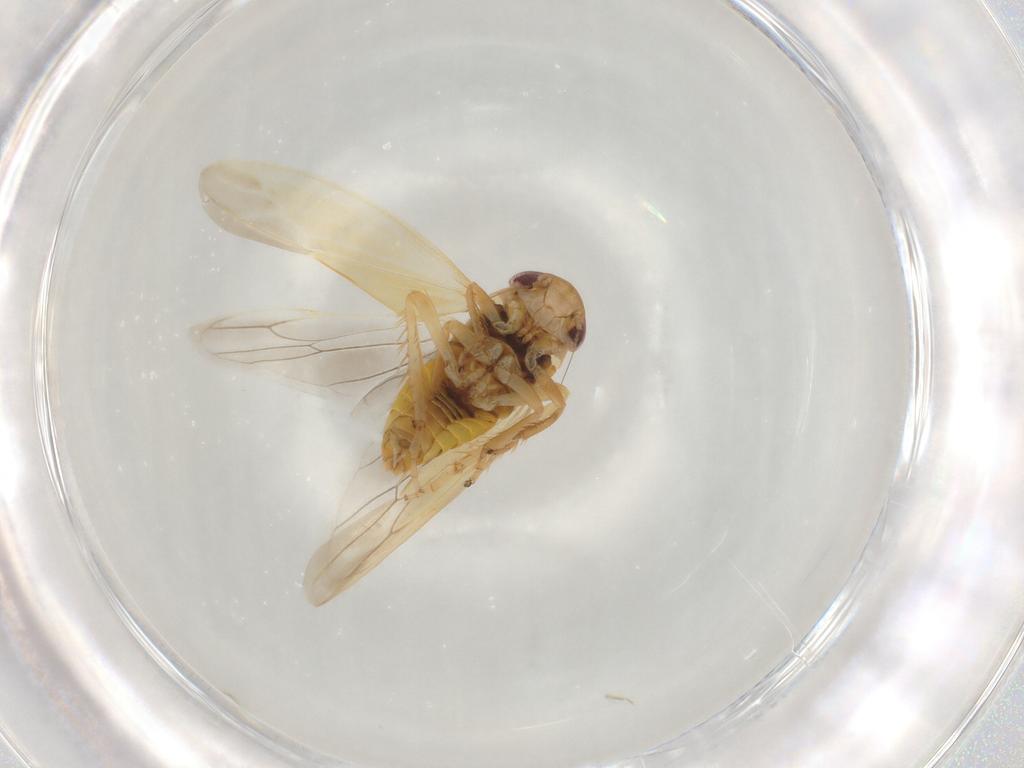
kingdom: Animalia
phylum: Arthropoda
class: Insecta
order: Hemiptera
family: Cicadellidae
